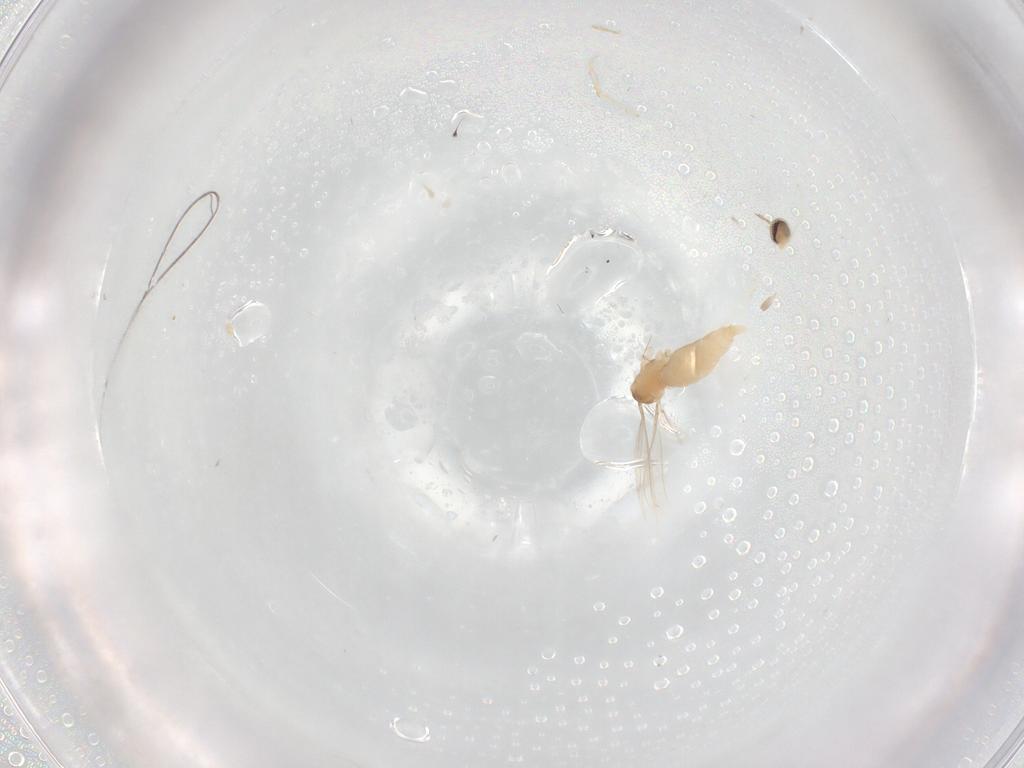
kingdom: Animalia
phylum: Arthropoda
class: Insecta
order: Diptera
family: Cecidomyiidae
